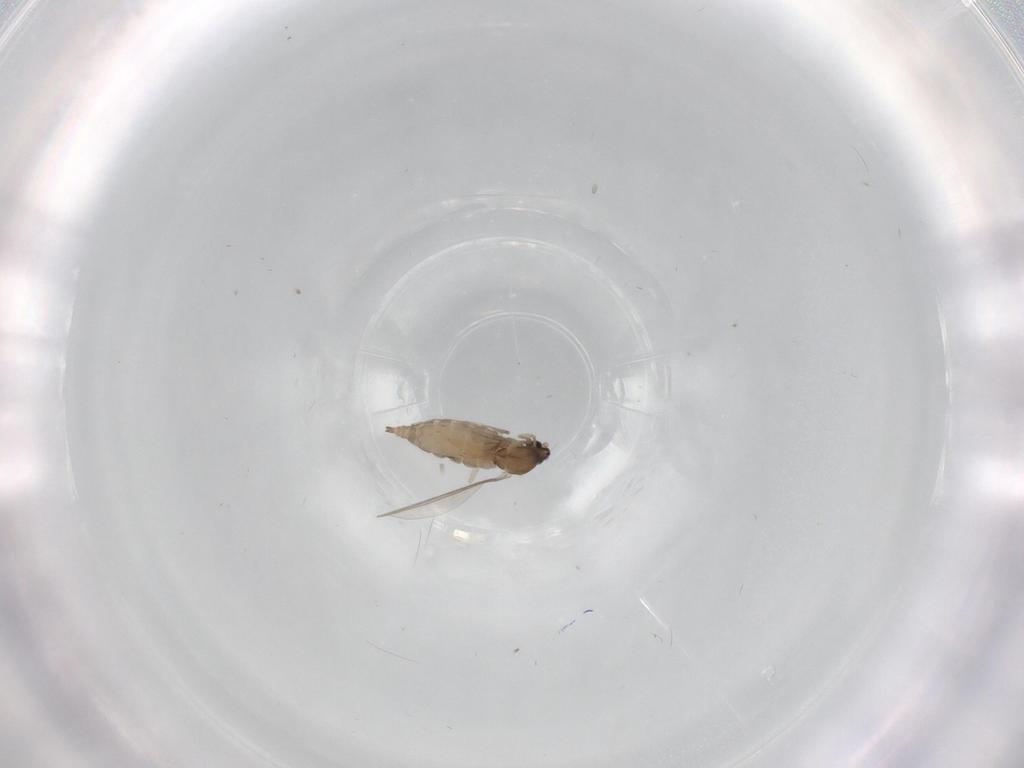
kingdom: Animalia
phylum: Arthropoda
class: Insecta
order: Diptera
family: Cecidomyiidae
